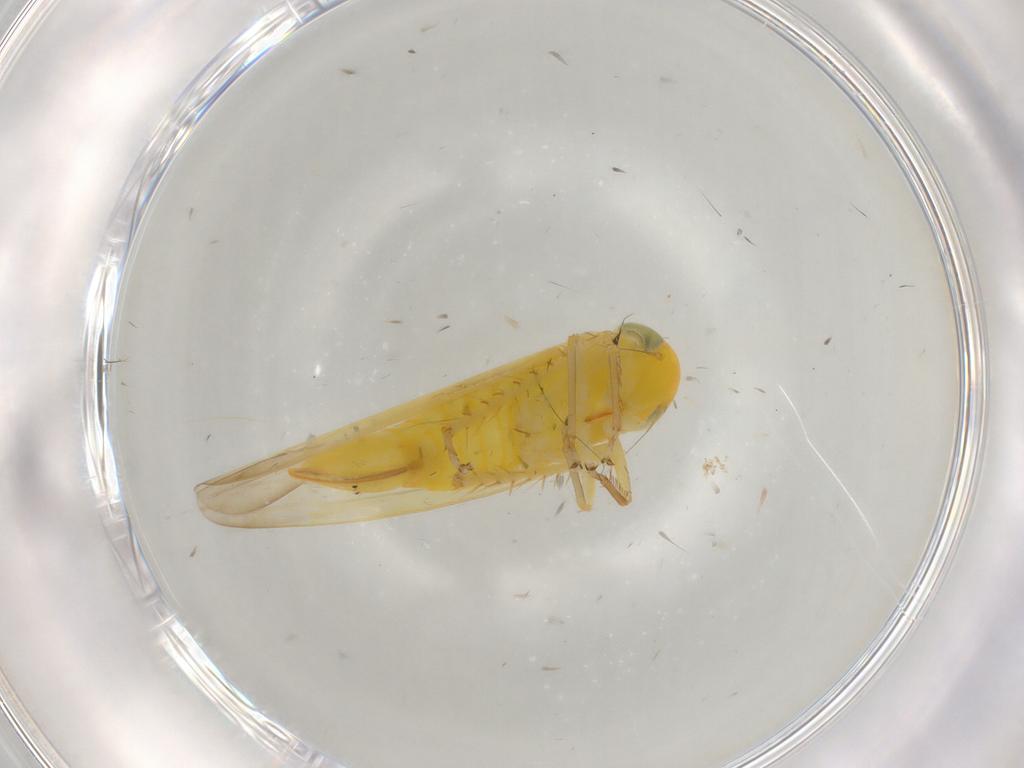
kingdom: Animalia
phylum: Arthropoda
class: Insecta
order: Hemiptera
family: Cicadellidae
